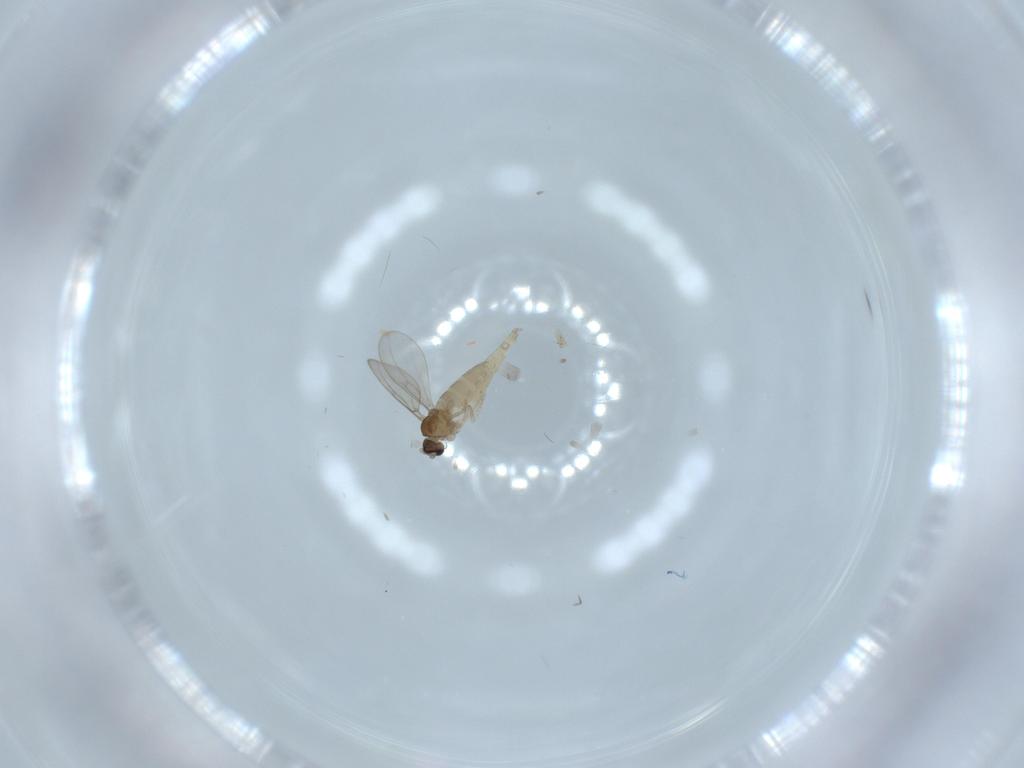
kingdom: Animalia
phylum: Arthropoda
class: Insecta
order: Diptera
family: Cecidomyiidae
